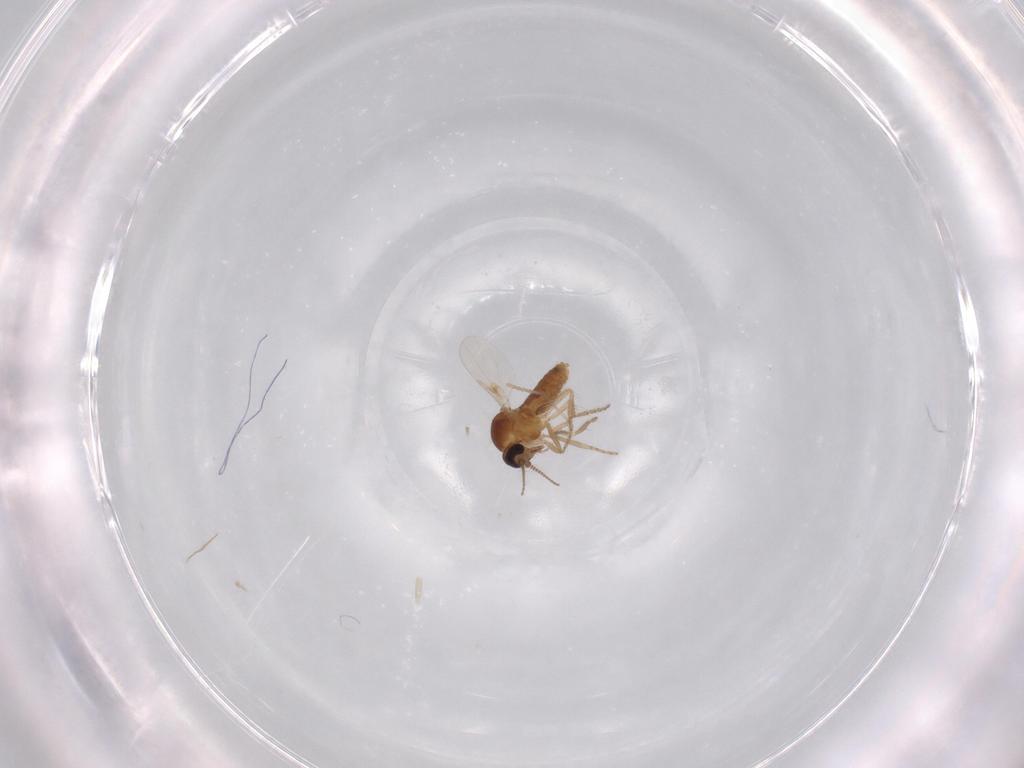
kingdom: Animalia
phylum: Arthropoda
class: Insecta
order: Diptera
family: Ceratopogonidae
